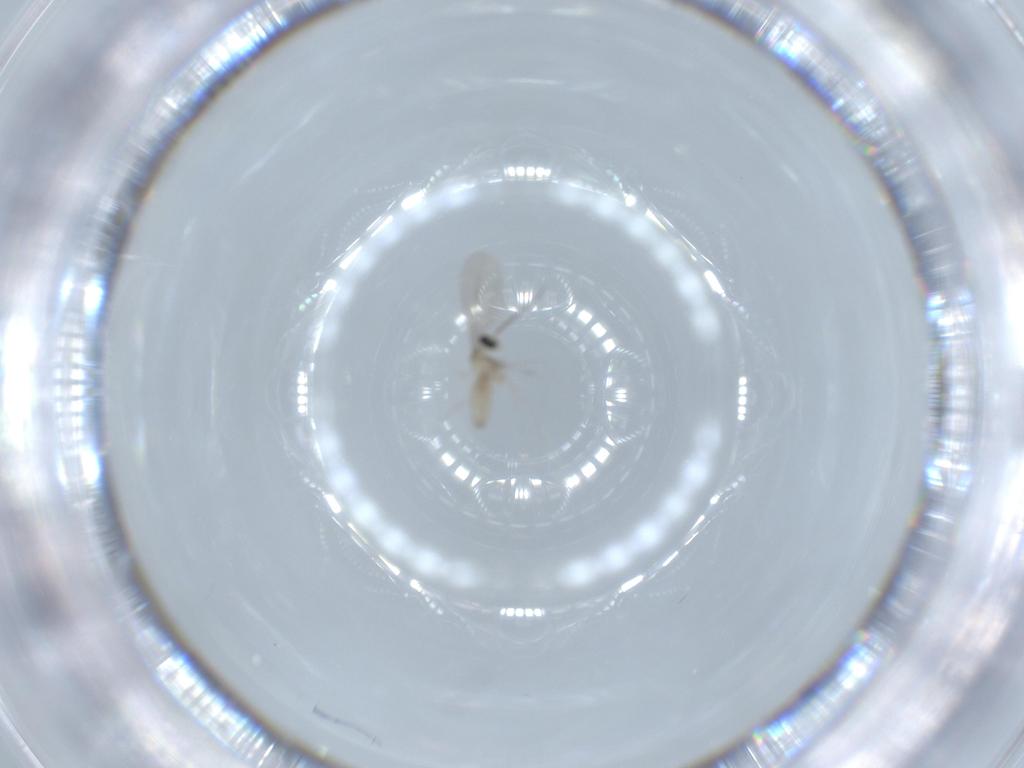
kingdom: Animalia
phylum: Arthropoda
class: Insecta
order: Diptera
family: Cecidomyiidae
